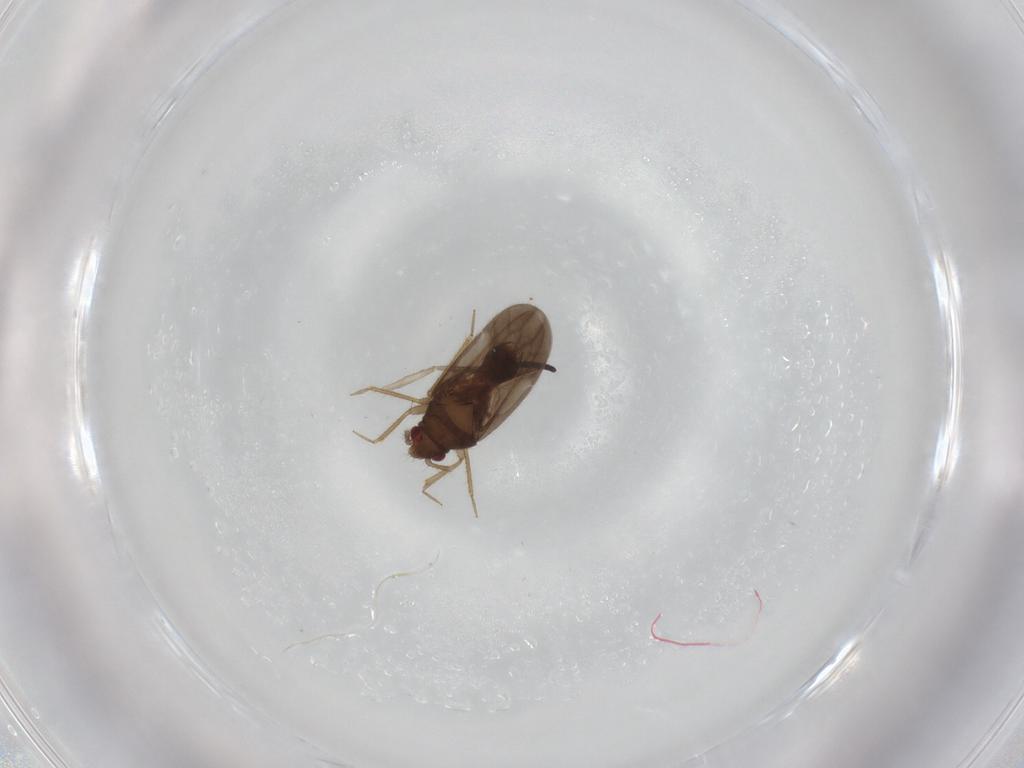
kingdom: Animalia
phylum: Arthropoda
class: Insecta
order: Hemiptera
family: Ceratocombidae
